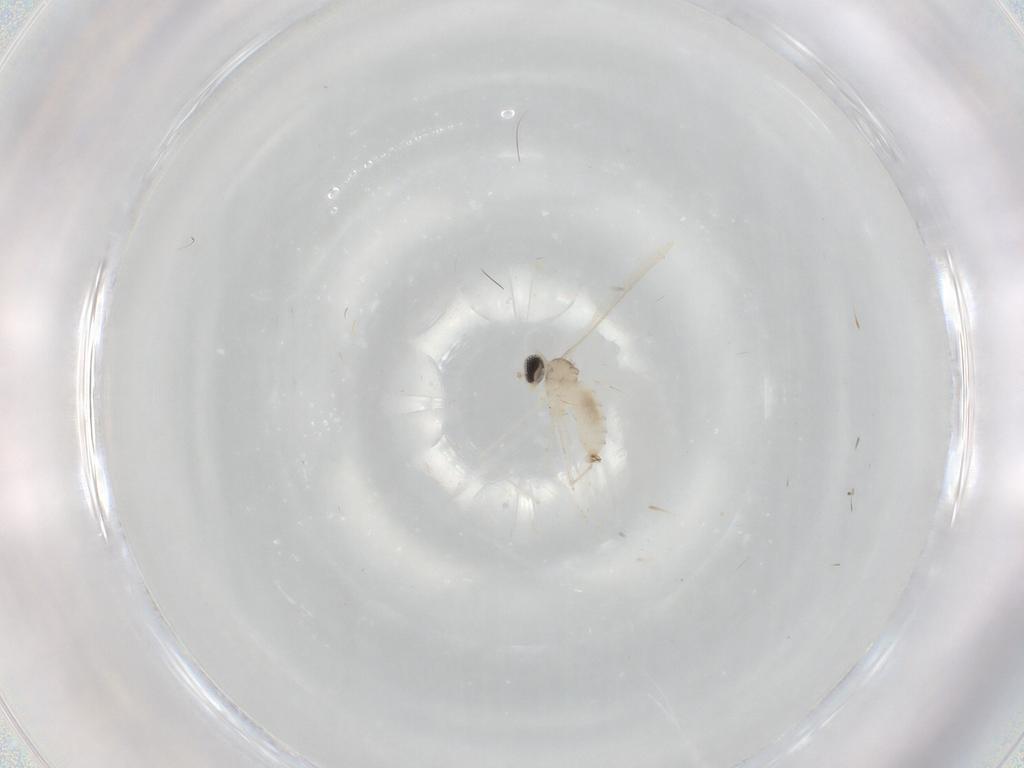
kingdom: Animalia
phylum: Arthropoda
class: Insecta
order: Diptera
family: Cecidomyiidae
